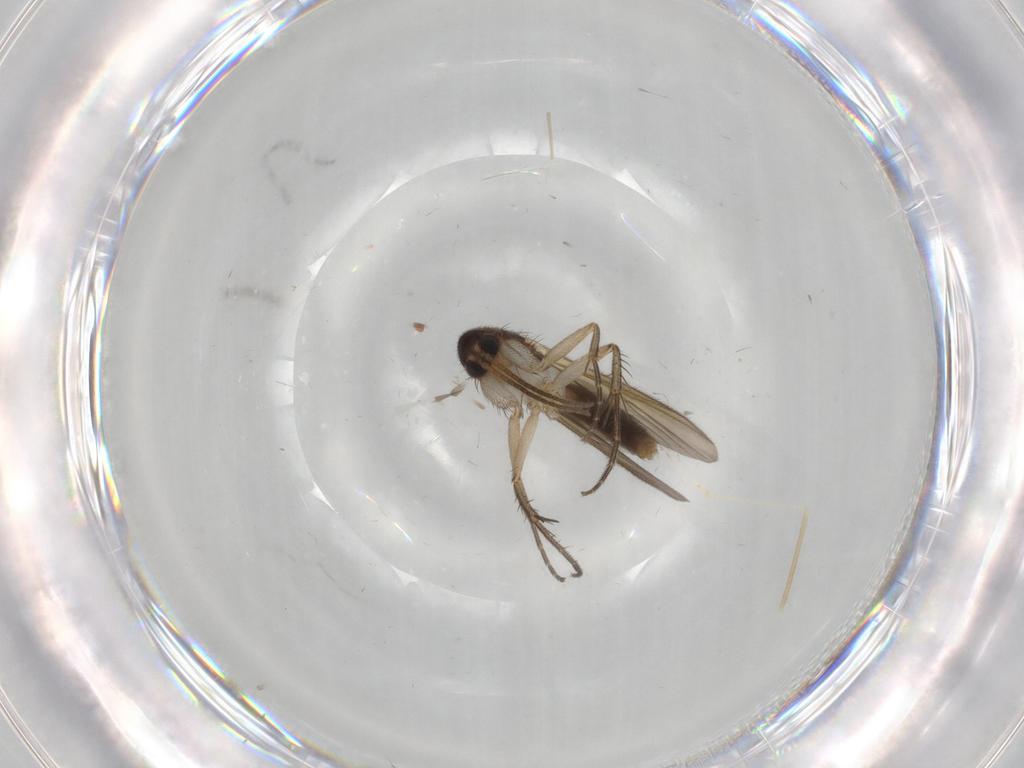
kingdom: Animalia
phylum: Arthropoda
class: Insecta
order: Diptera
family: Mycetophilidae
